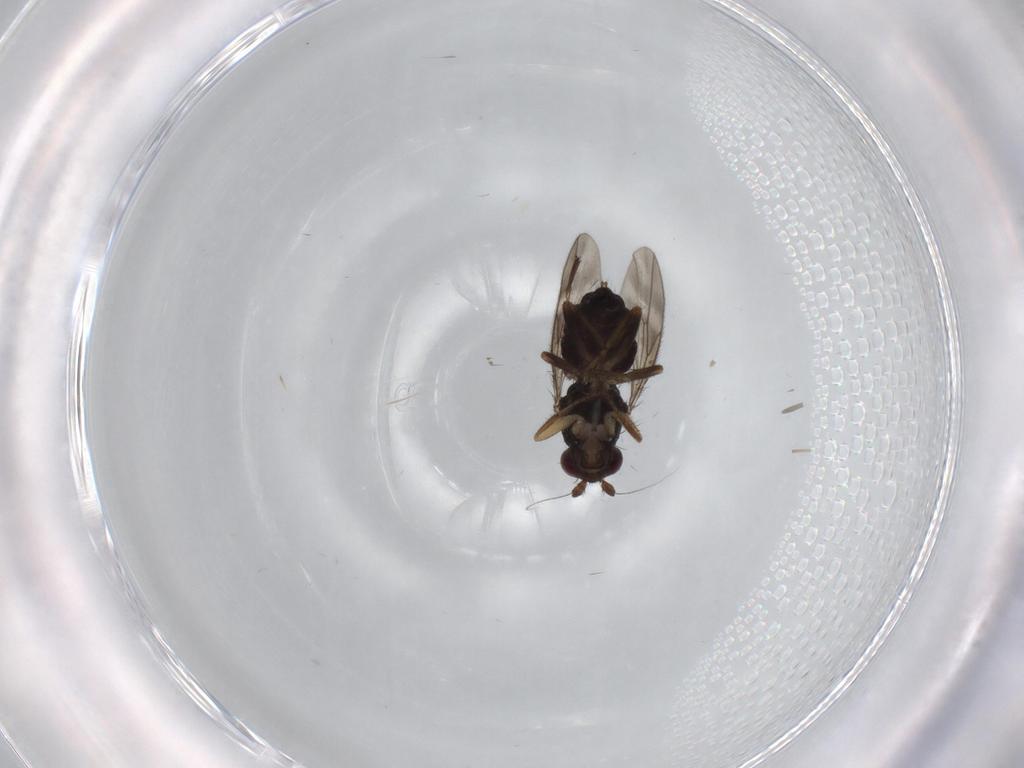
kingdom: Animalia
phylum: Arthropoda
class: Insecta
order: Diptera
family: Sphaeroceridae
